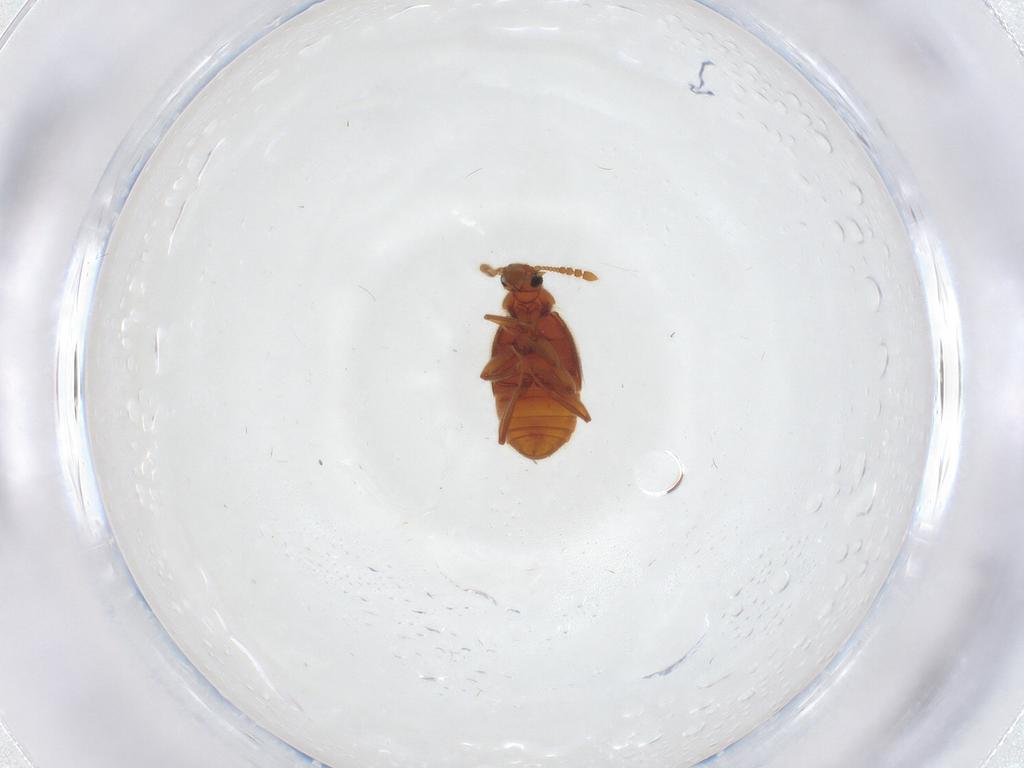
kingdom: Animalia
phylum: Arthropoda
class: Insecta
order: Coleoptera
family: Staphylinidae
